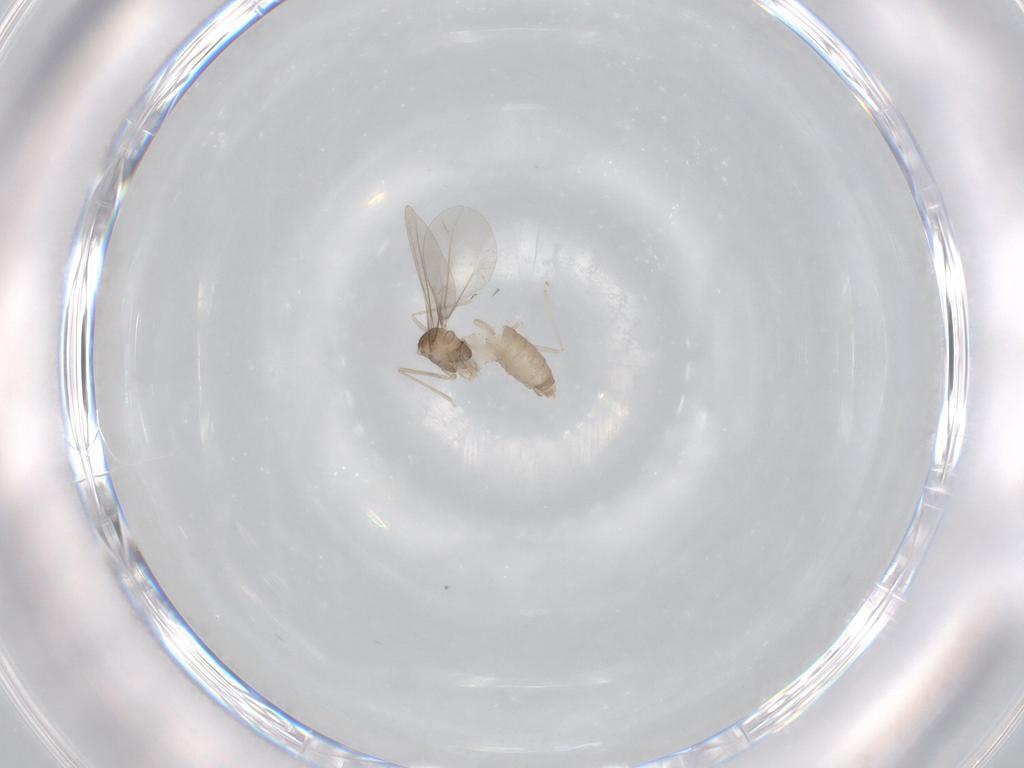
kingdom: Animalia
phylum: Arthropoda
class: Insecta
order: Diptera
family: Cecidomyiidae
